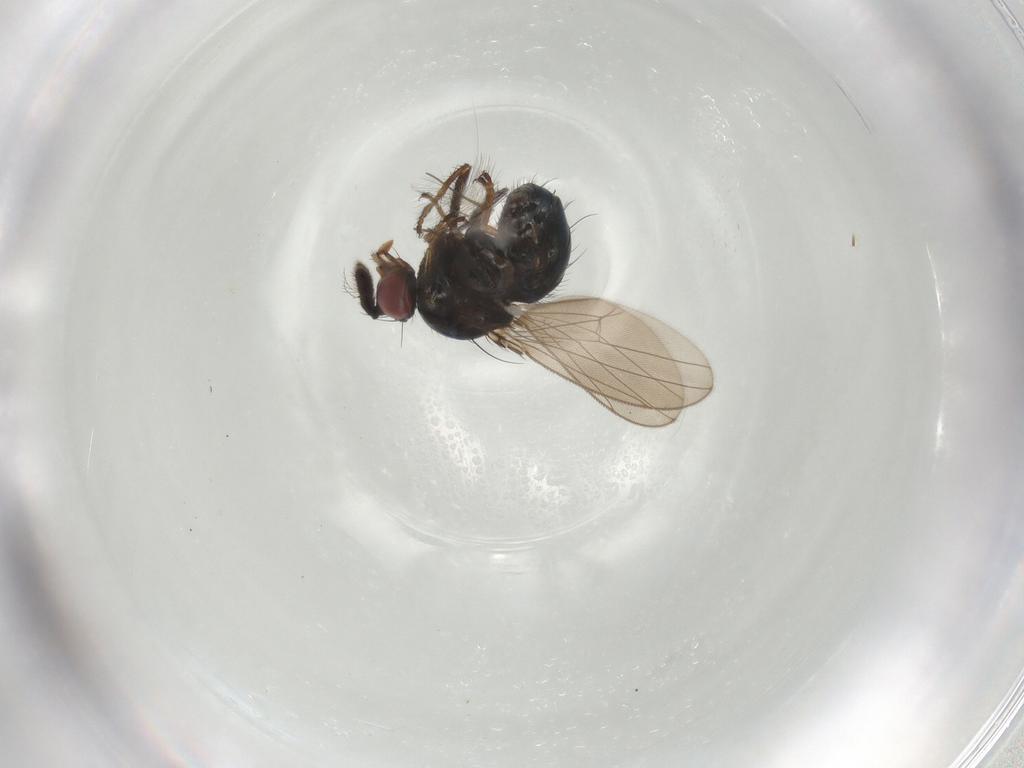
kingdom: Animalia
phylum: Arthropoda
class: Insecta
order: Diptera
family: Ephydridae
